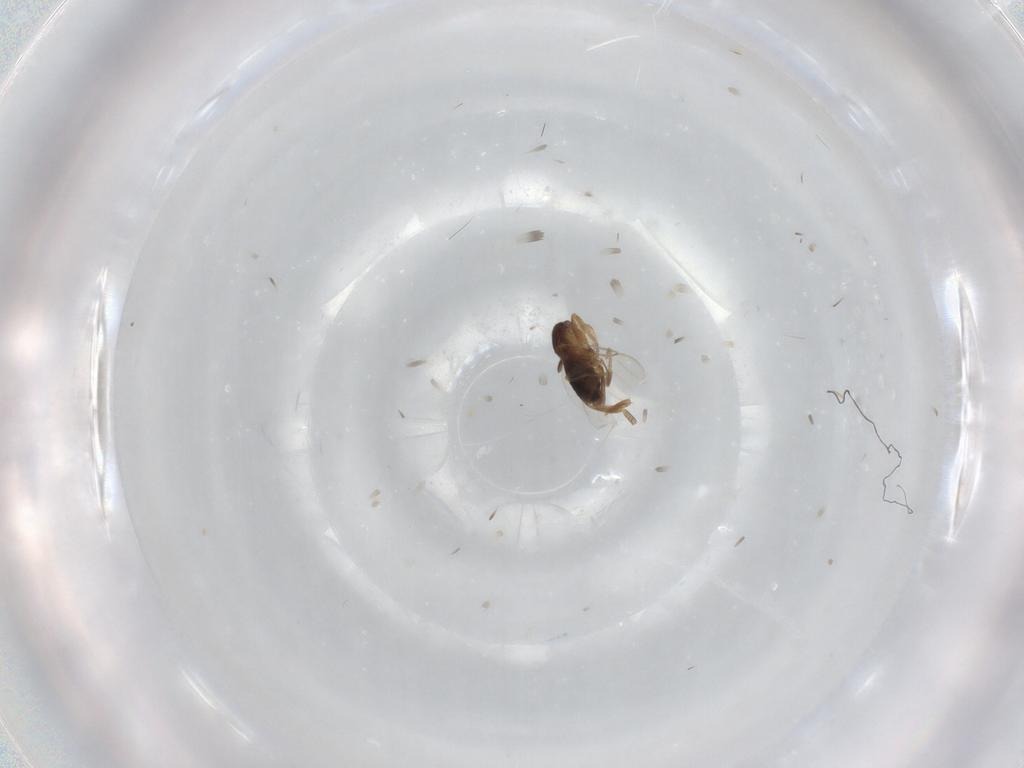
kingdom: Animalia
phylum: Arthropoda
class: Insecta
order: Diptera
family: Phoridae
